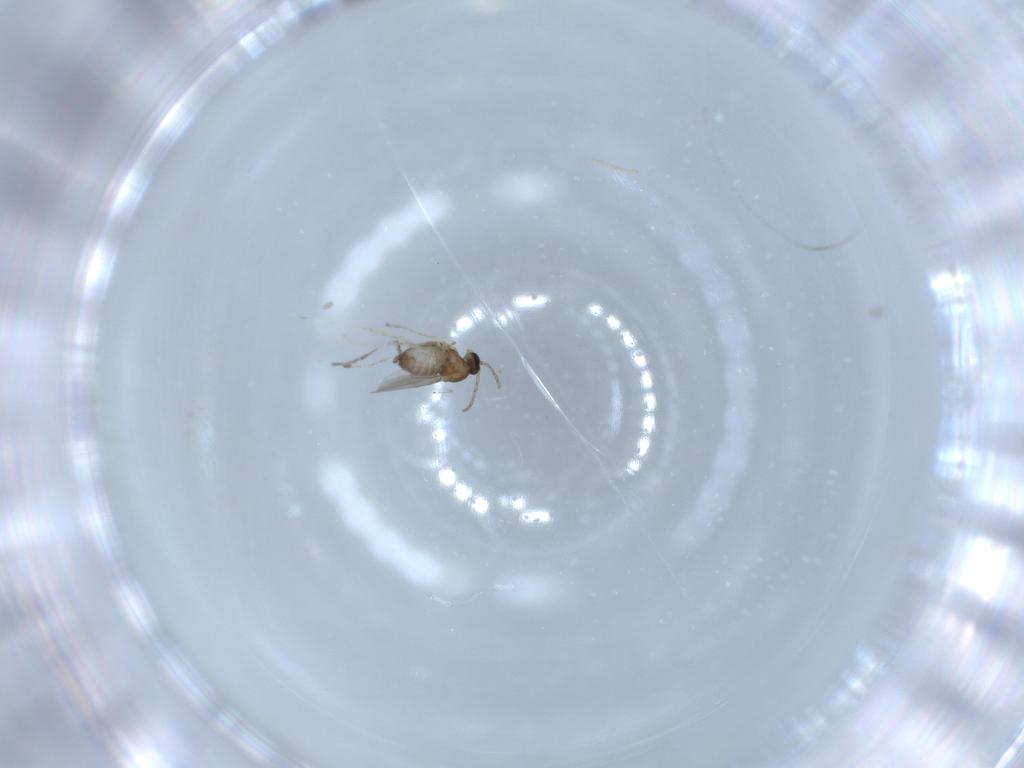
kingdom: Animalia
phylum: Arthropoda
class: Insecta
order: Diptera
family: Cecidomyiidae
